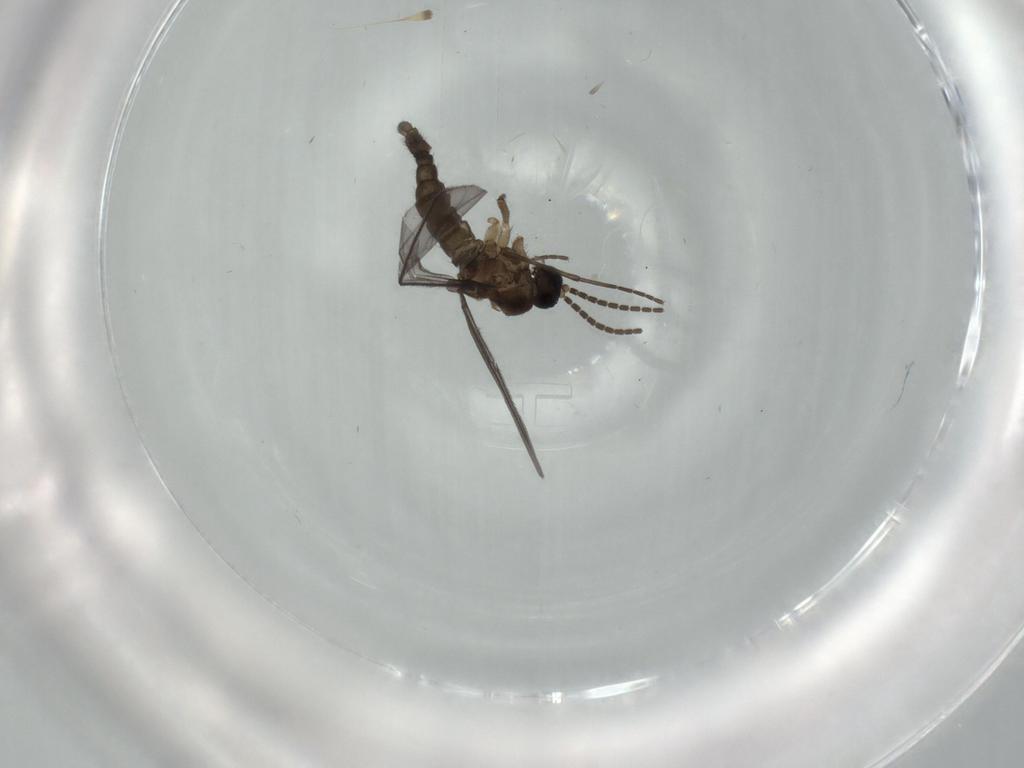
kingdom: Animalia
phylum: Arthropoda
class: Insecta
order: Diptera
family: Sciaridae
